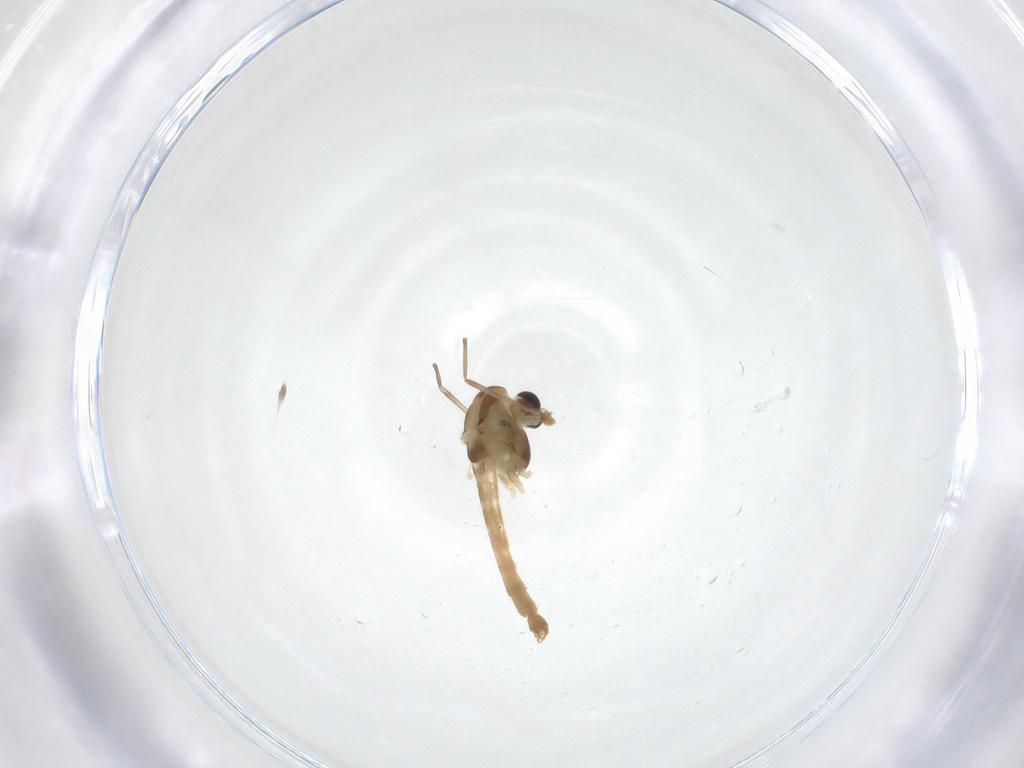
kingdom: Animalia
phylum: Arthropoda
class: Insecta
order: Diptera
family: Chironomidae
